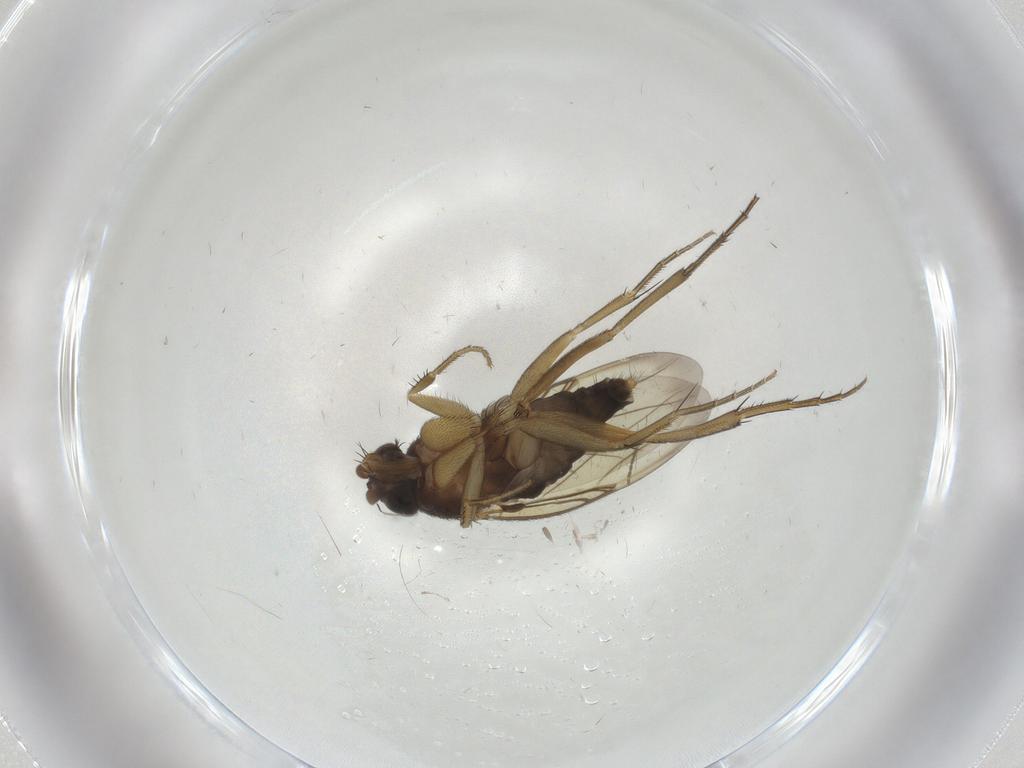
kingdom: Animalia
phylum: Arthropoda
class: Insecta
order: Diptera
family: Phoridae
